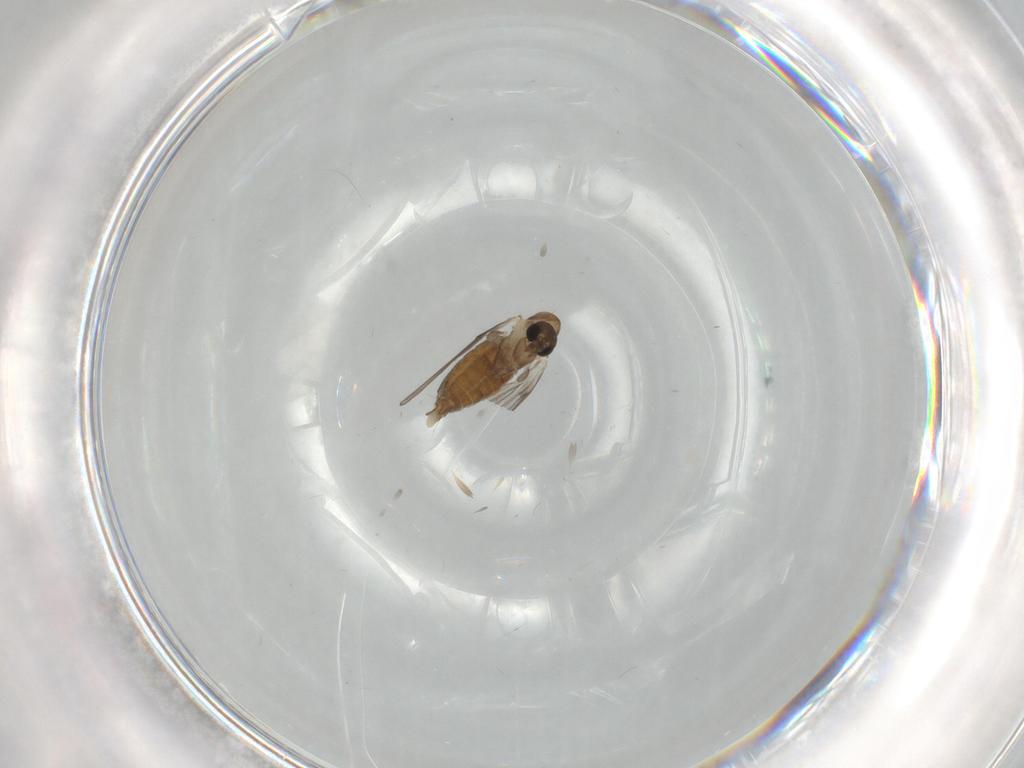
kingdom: Animalia
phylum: Arthropoda
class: Insecta
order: Diptera
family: Psychodidae
